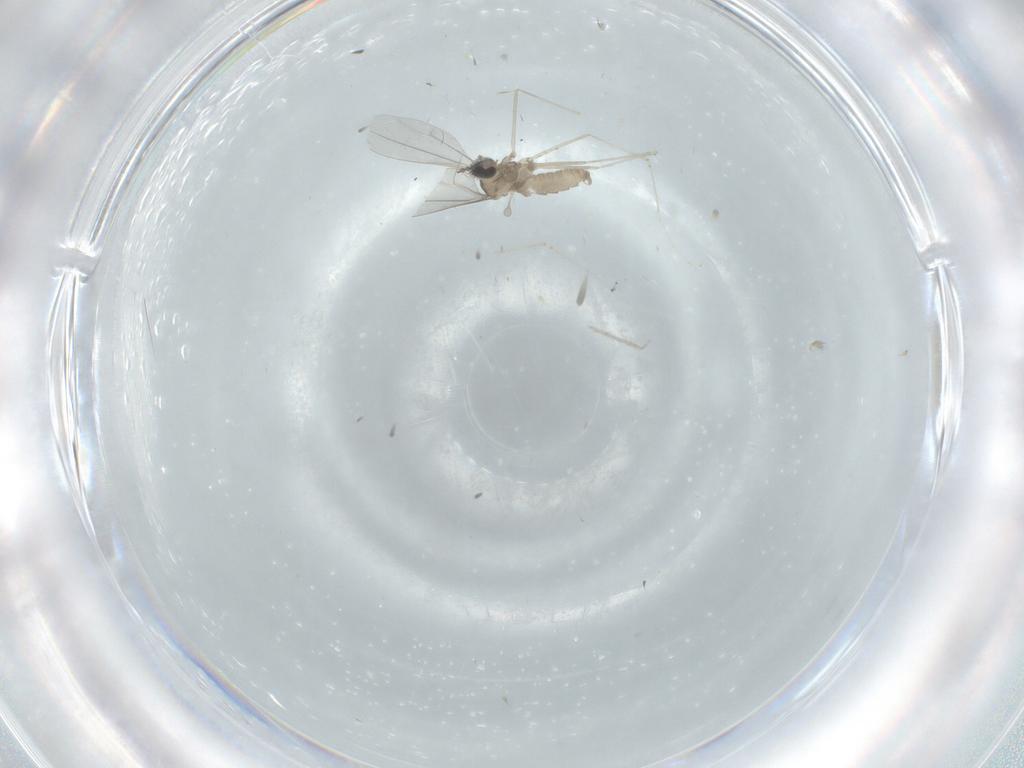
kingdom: Animalia
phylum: Arthropoda
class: Insecta
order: Diptera
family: Cecidomyiidae
